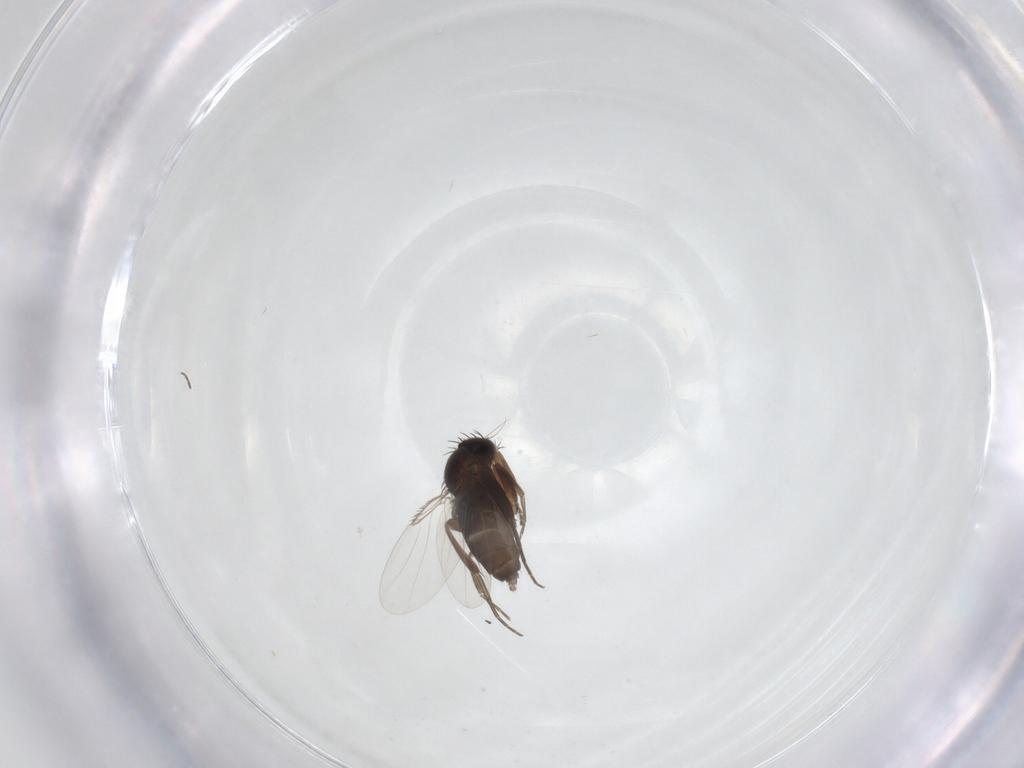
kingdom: Animalia
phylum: Arthropoda
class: Insecta
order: Diptera
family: Phoridae
